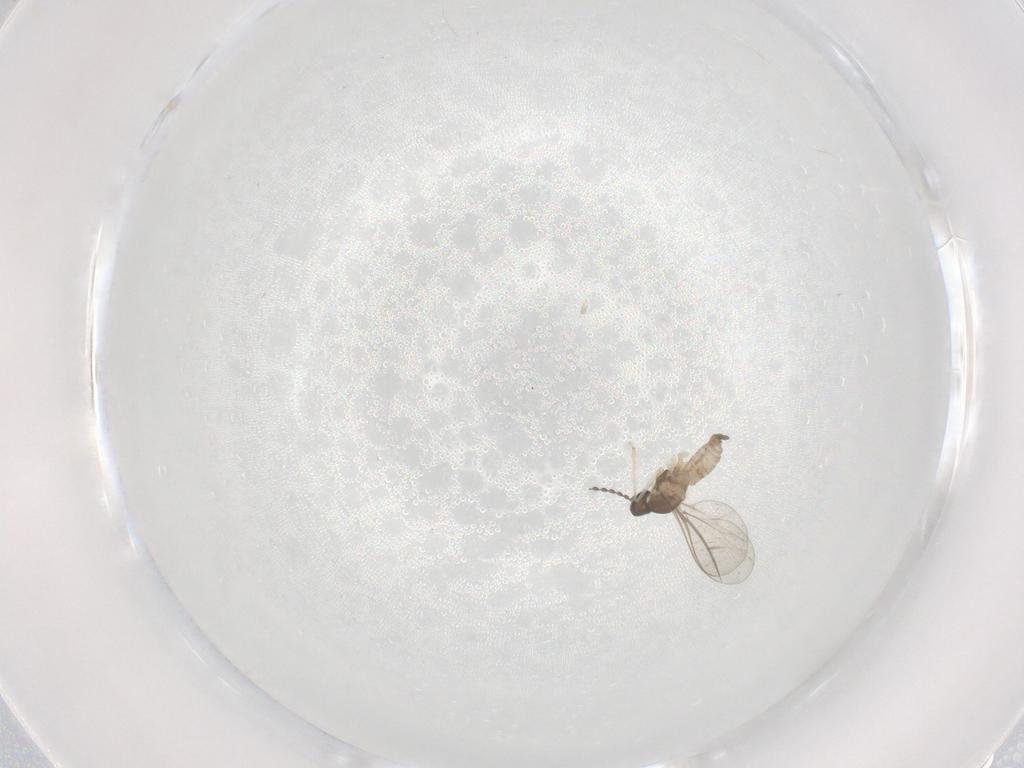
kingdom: Animalia
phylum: Arthropoda
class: Insecta
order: Diptera
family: Cecidomyiidae
